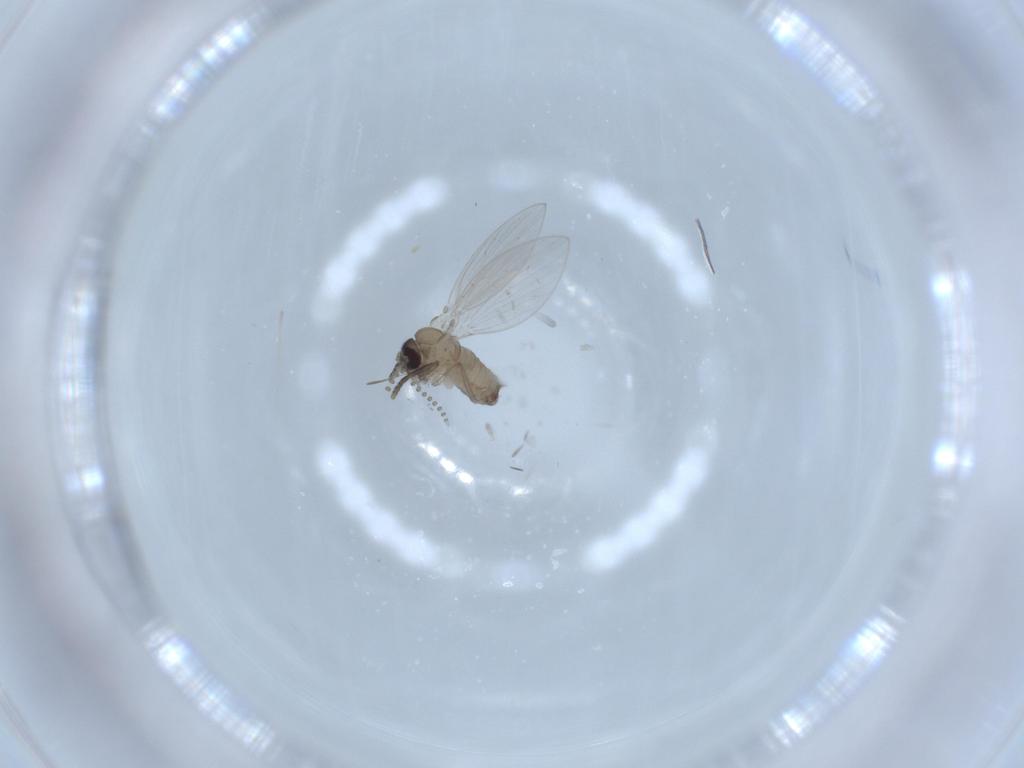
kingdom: Animalia
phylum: Arthropoda
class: Insecta
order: Diptera
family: Psychodidae
